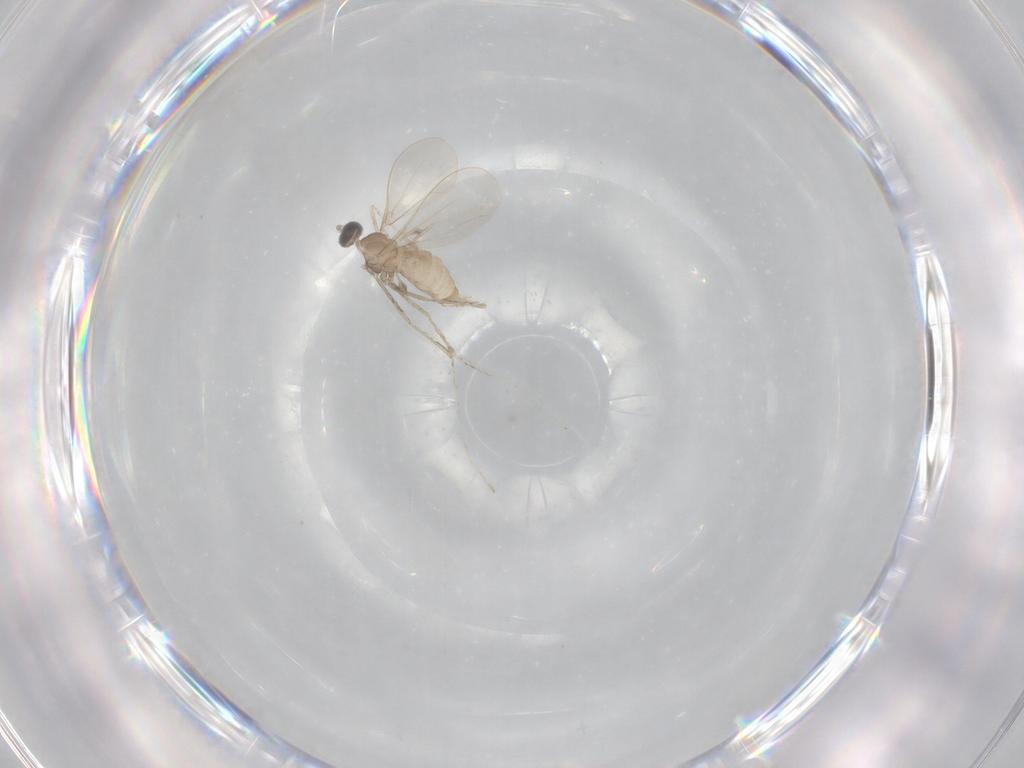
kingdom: Animalia
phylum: Arthropoda
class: Insecta
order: Diptera
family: Cecidomyiidae
